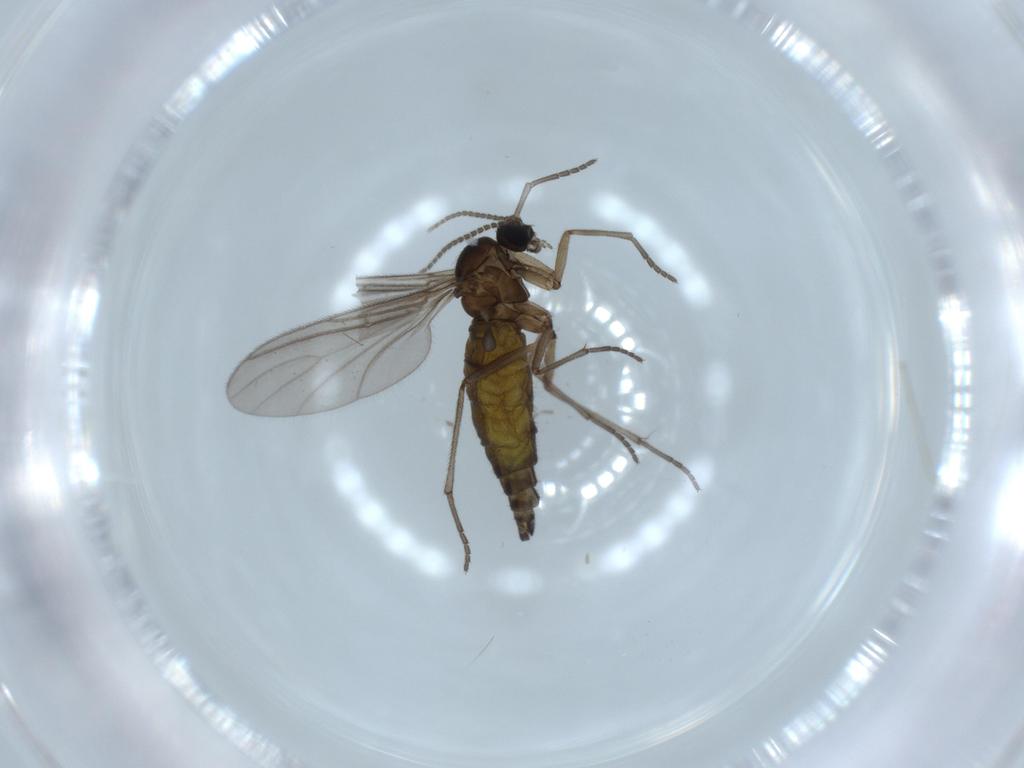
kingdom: Animalia
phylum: Arthropoda
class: Insecta
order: Diptera
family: Sciaridae
